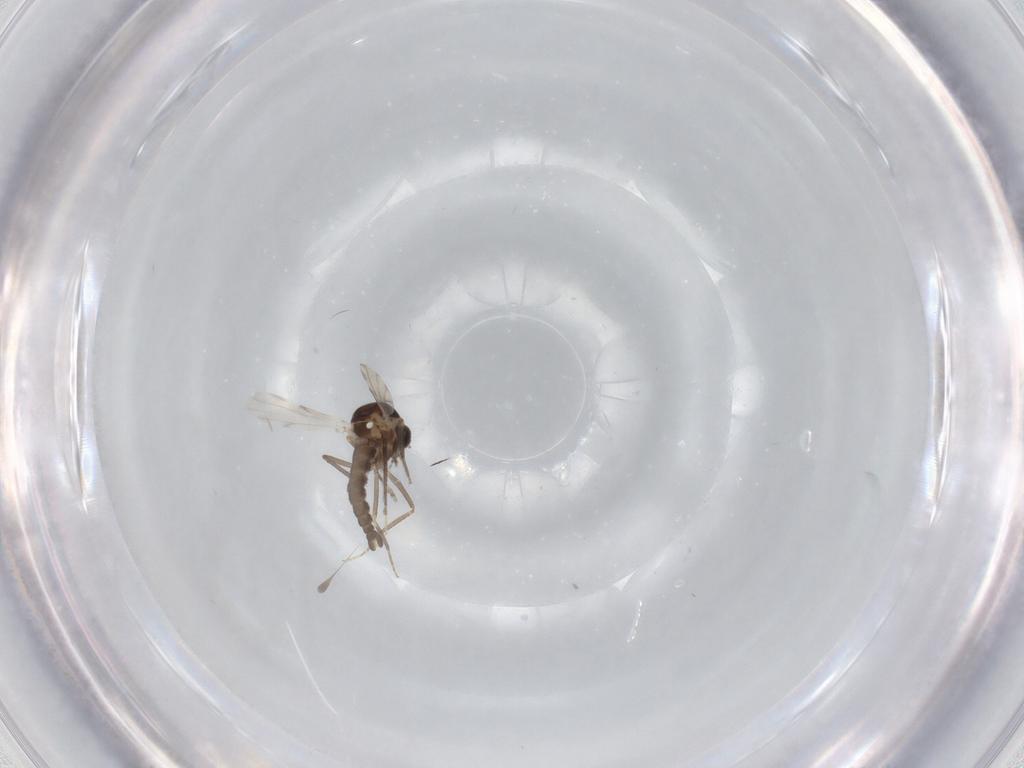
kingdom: Animalia
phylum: Arthropoda
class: Insecta
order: Diptera
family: Ceratopogonidae
